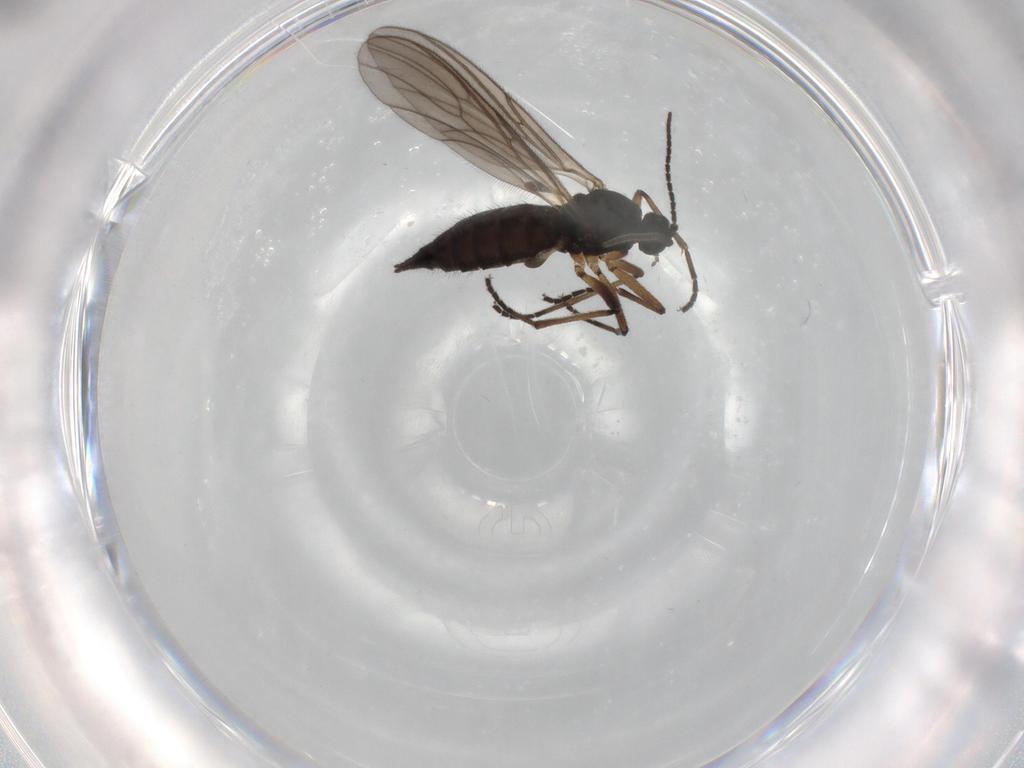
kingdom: Animalia
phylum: Arthropoda
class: Insecta
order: Diptera
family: Sciaridae
